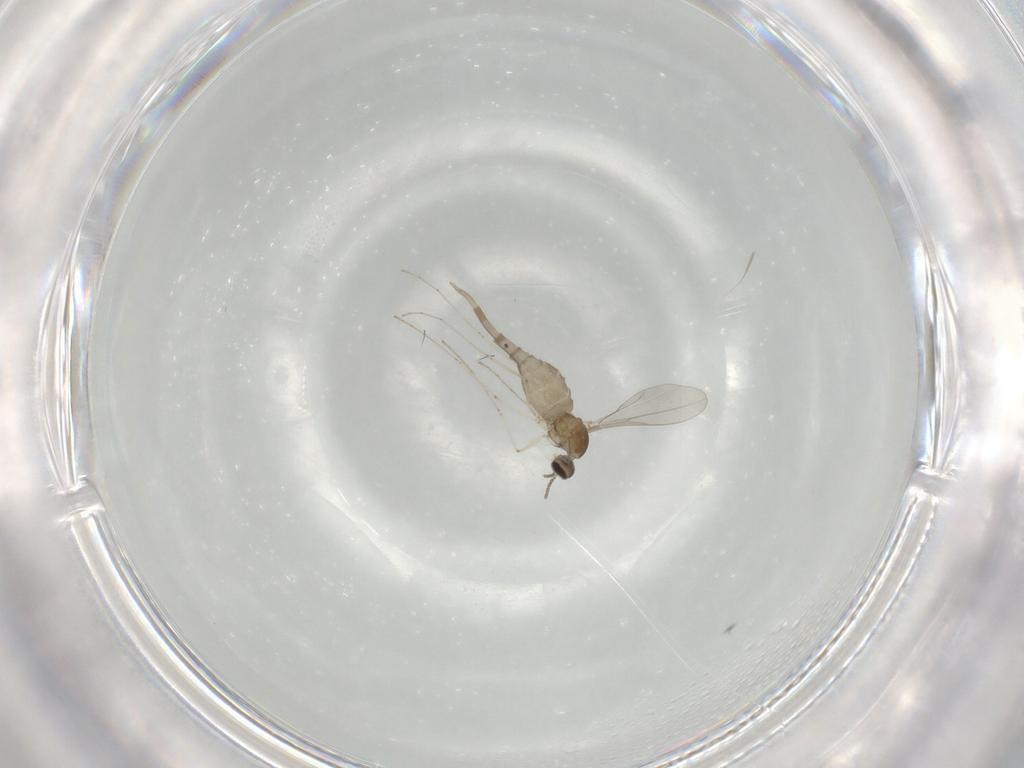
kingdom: Animalia
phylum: Arthropoda
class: Insecta
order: Diptera
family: Cecidomyiidae
